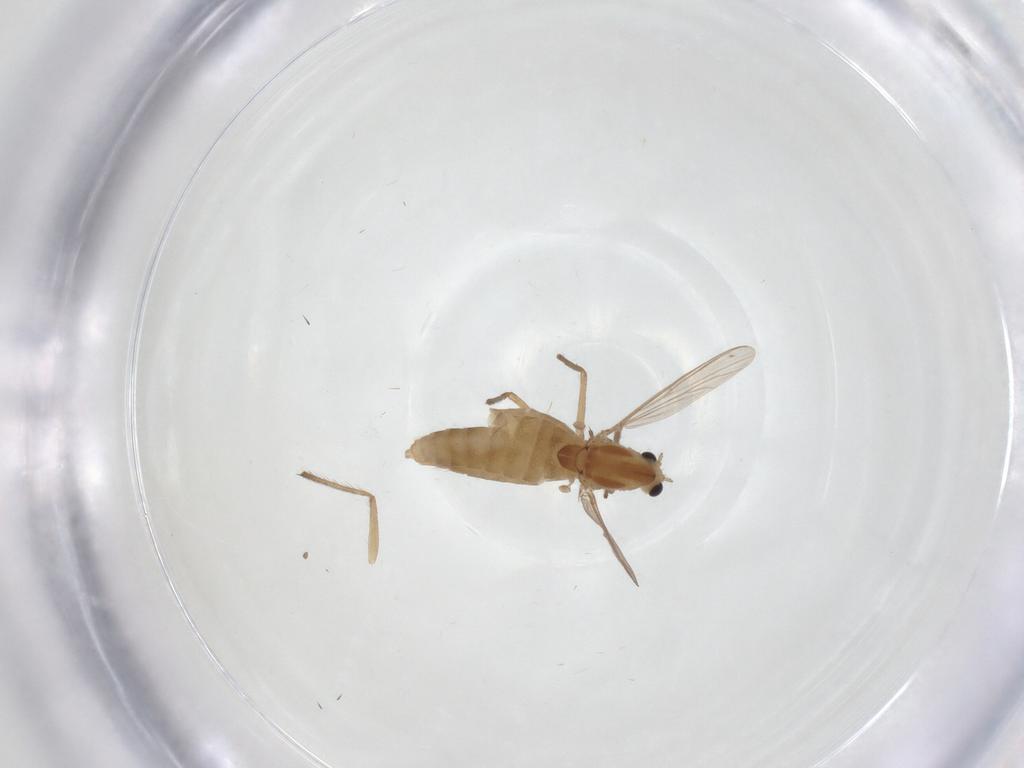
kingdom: Animalia
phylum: Arthropoda
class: Insecta
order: Diptera
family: Chironomidae
